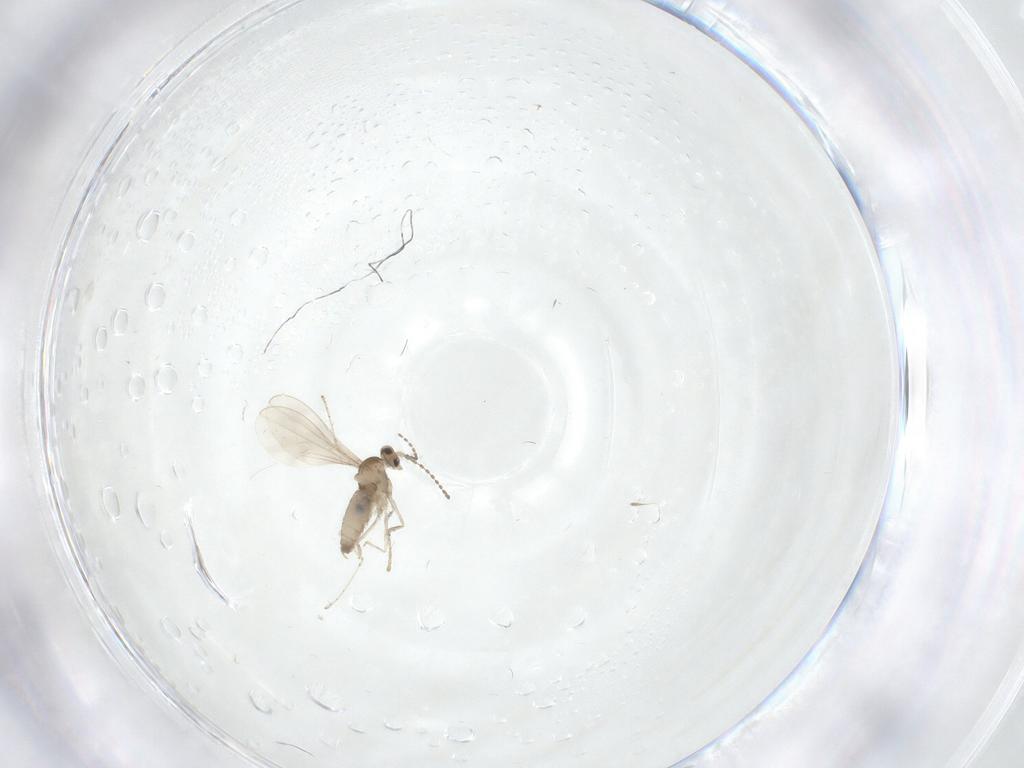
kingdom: Animalia
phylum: Arthropoda
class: Insecta
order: Diptera
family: Cecidomyiidae
